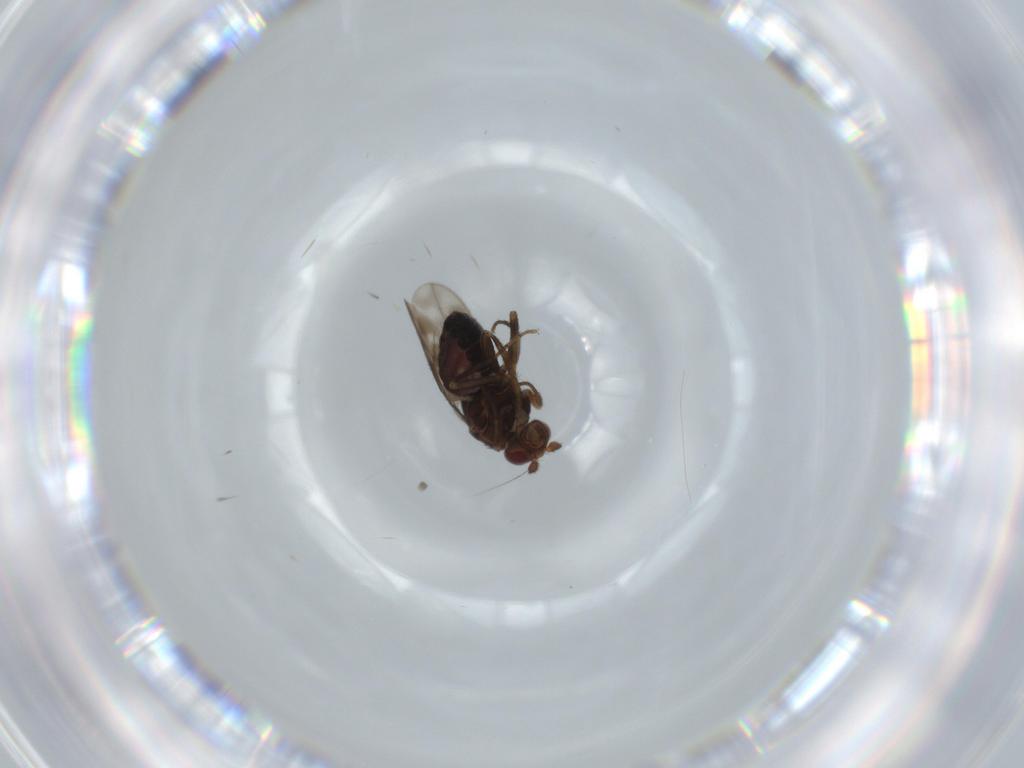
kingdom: Animalia
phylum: Arthropoda
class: Insecta
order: Diptera
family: Sphaeroceridae
